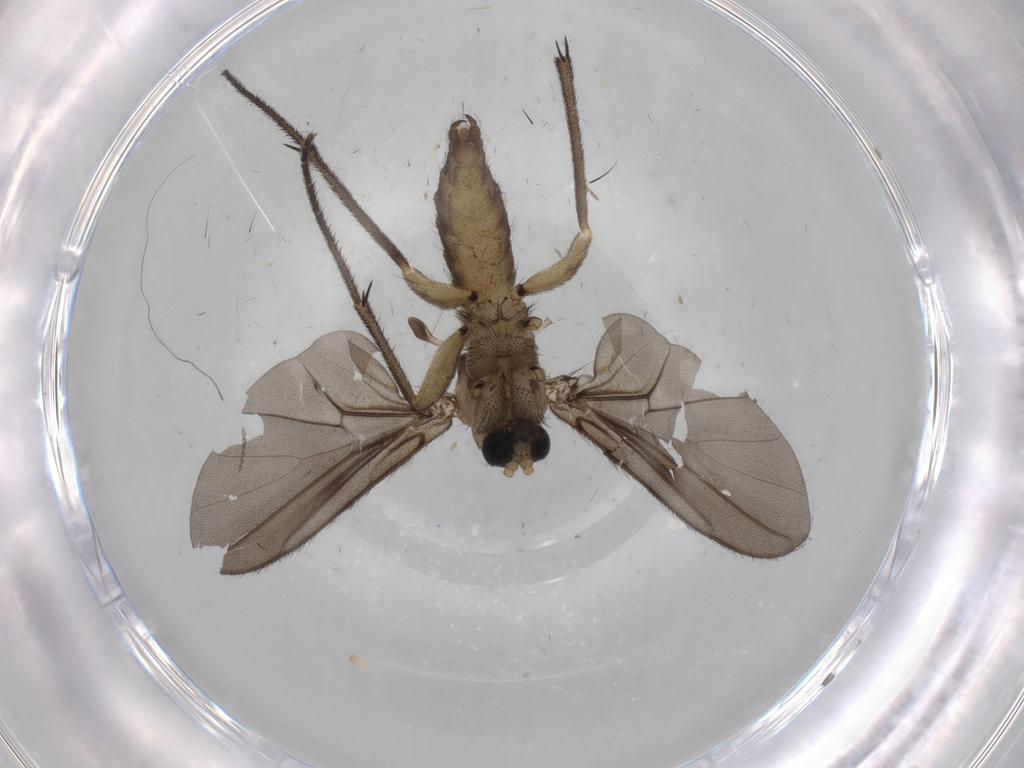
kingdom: Animalia
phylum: Arthropoda
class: Insecta
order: Diptera
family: Cecidomyiidae
